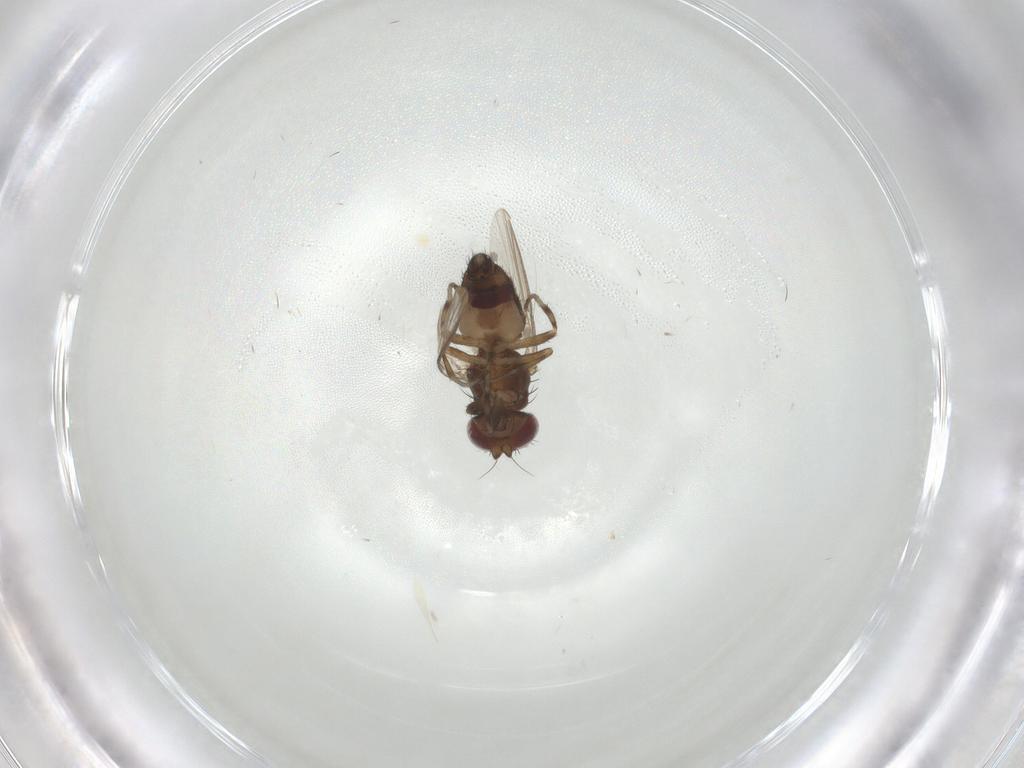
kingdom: Animalia
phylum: Arthropoda
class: Insecta
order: Diptera
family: Heleomyzidae
